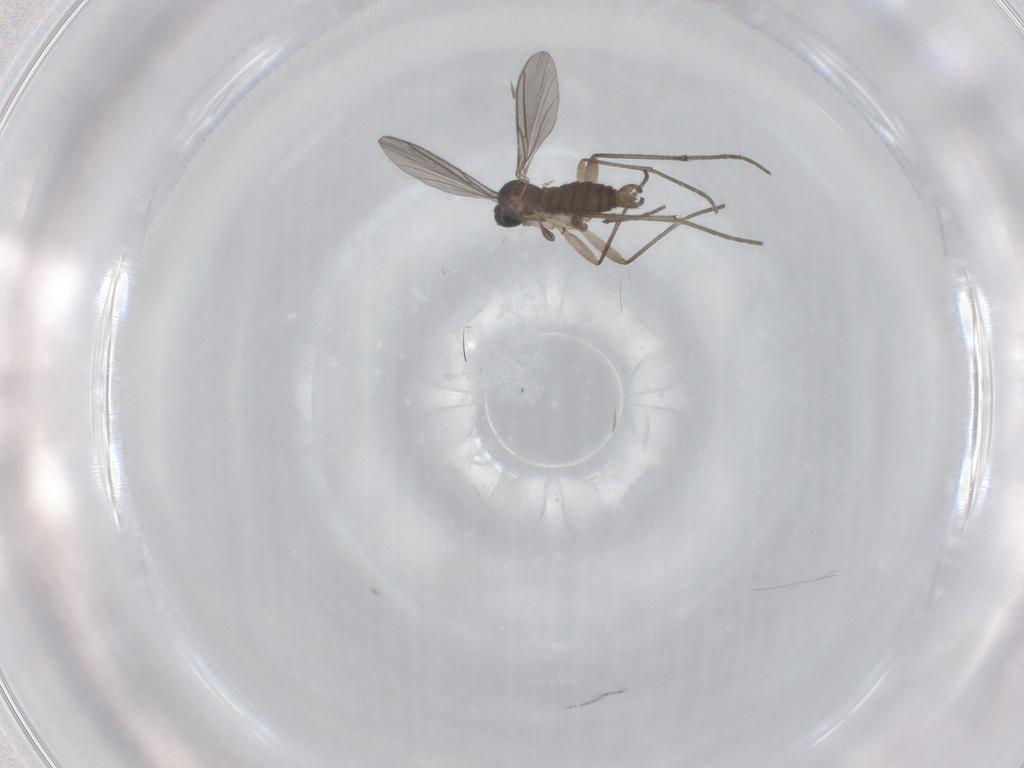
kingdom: Animalia
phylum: Arthropoda
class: Insecta
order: Diptera
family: Sciaridae
